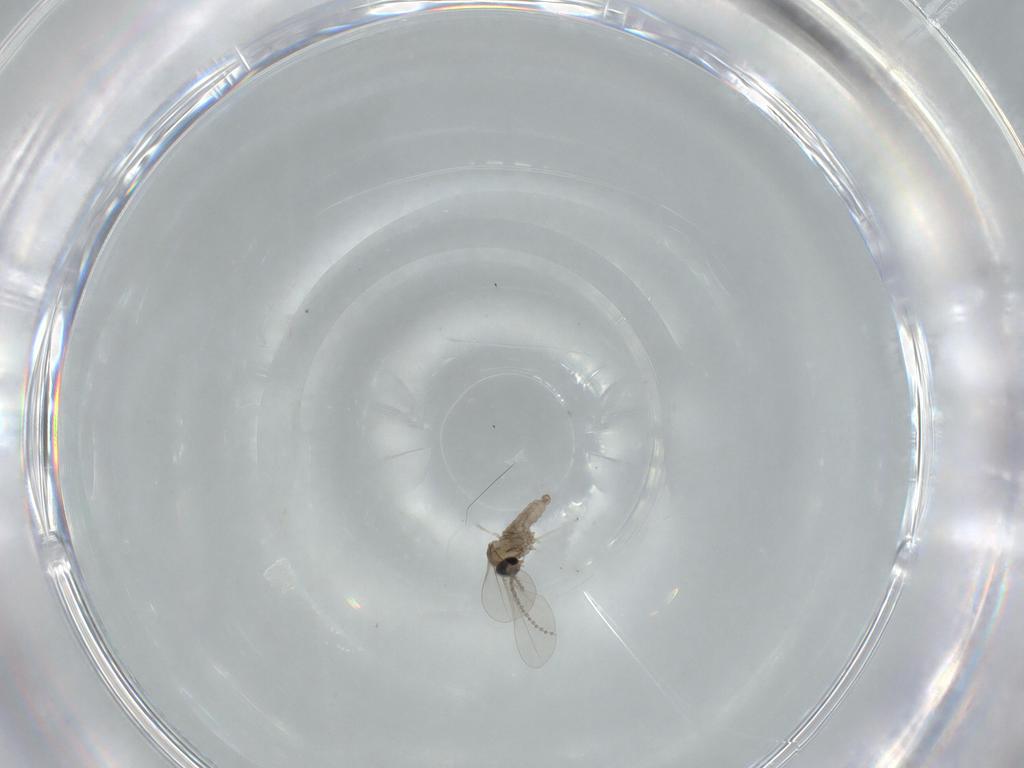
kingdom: Animalia
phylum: Arthropoda
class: Insecta
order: Diptera
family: Cecidomyiidae
